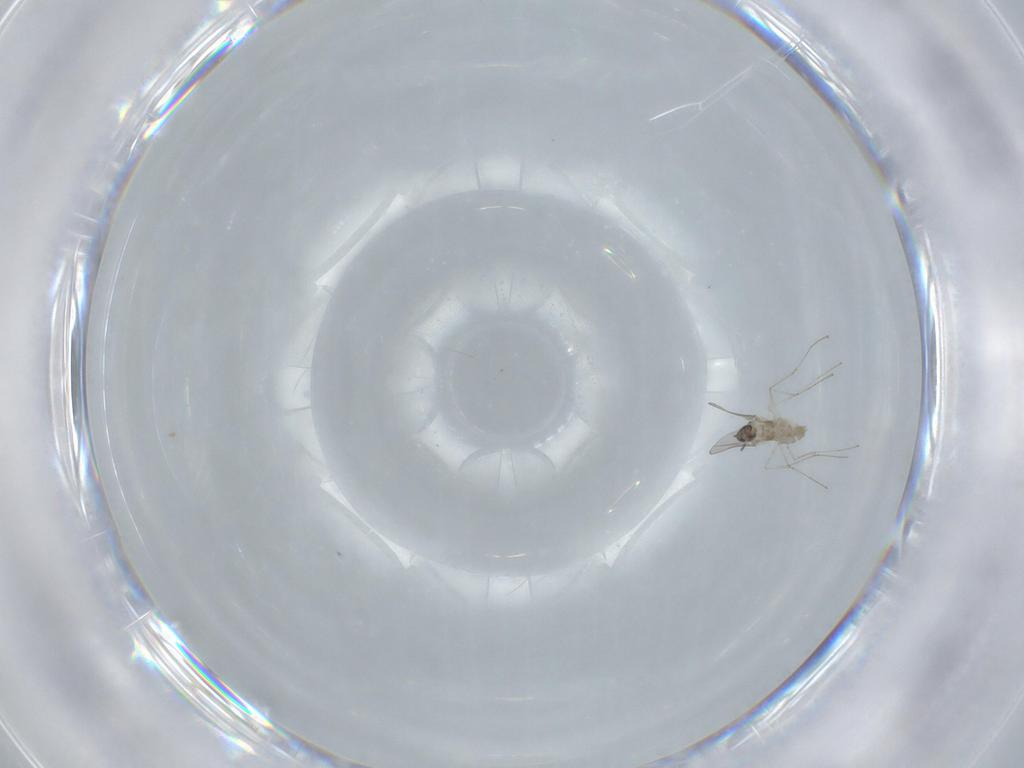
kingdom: Animalia
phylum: Arthropoda
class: Insecta
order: Diptera
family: Cecidomyiidae
